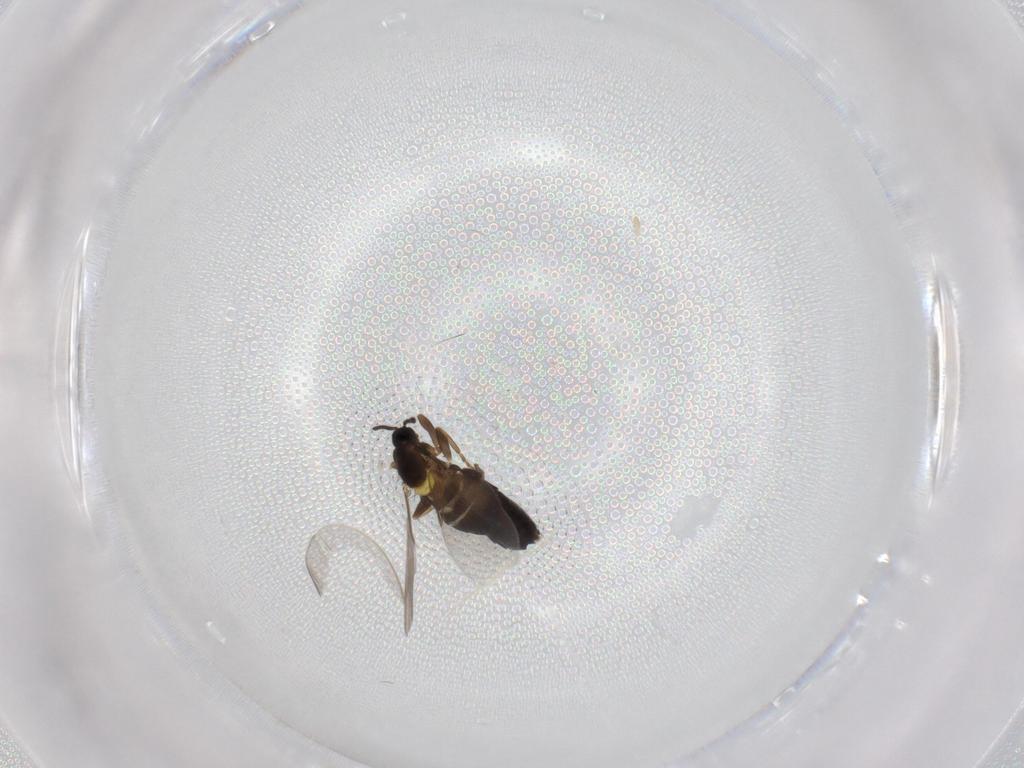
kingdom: Animalia
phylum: Arthropoda
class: Insecta
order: Diptera
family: Scatopsidae
